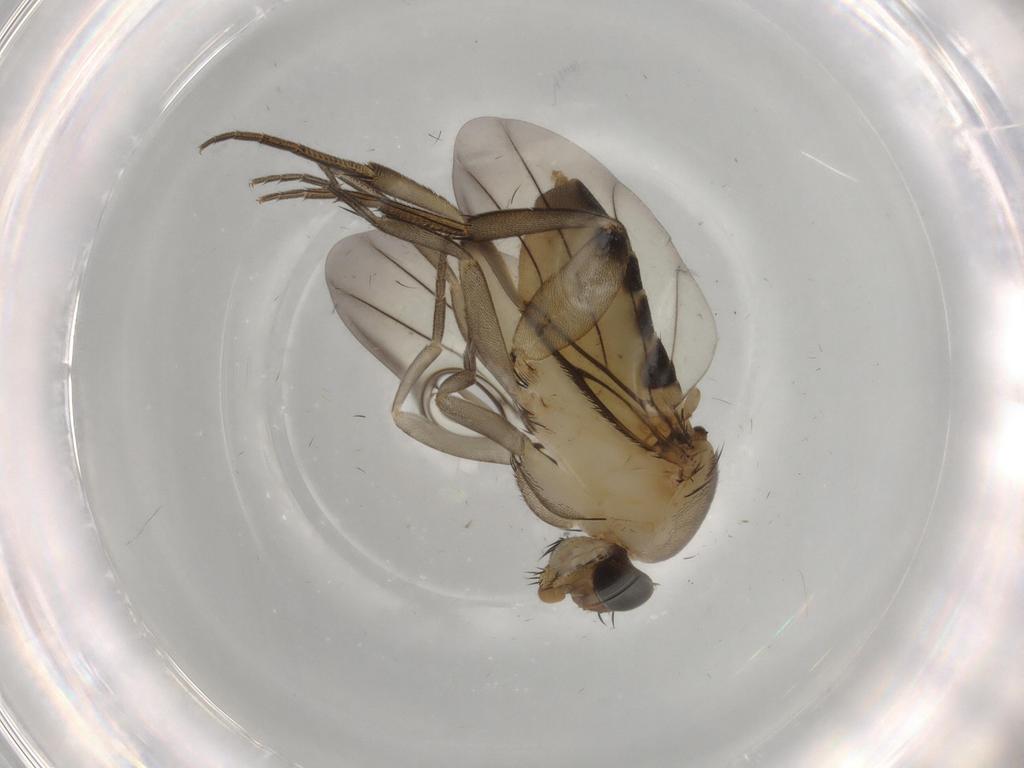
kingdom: Animalia
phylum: Arthropoda
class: Insecta
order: Diptera
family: Phoridae
